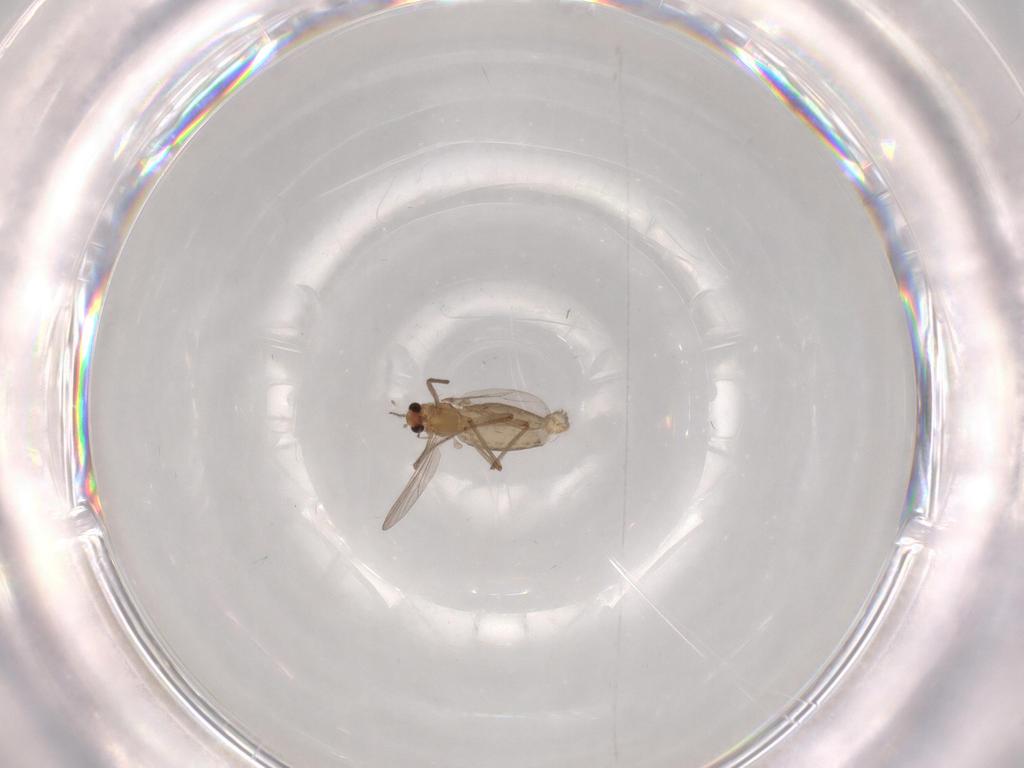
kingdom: Animalia
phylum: Arthropoda
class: Insecta
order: Diptera
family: Chironomidae
